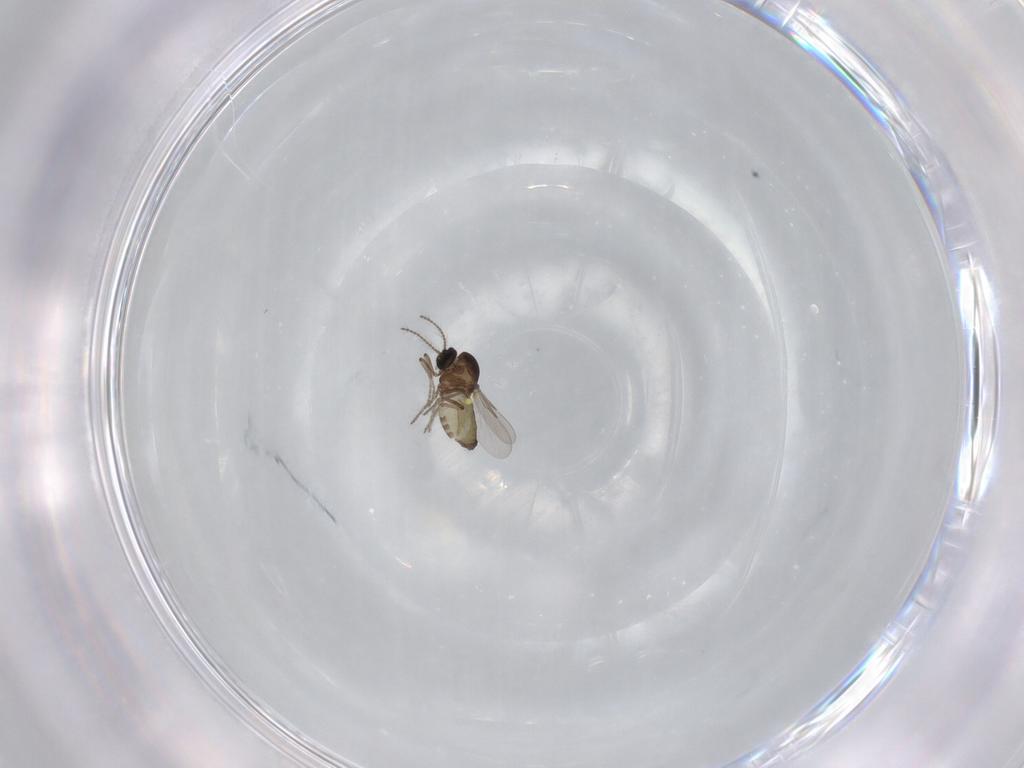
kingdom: Animalia
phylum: Arthropoda
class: Insecta
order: Diptera
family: Ceratopogonidae
